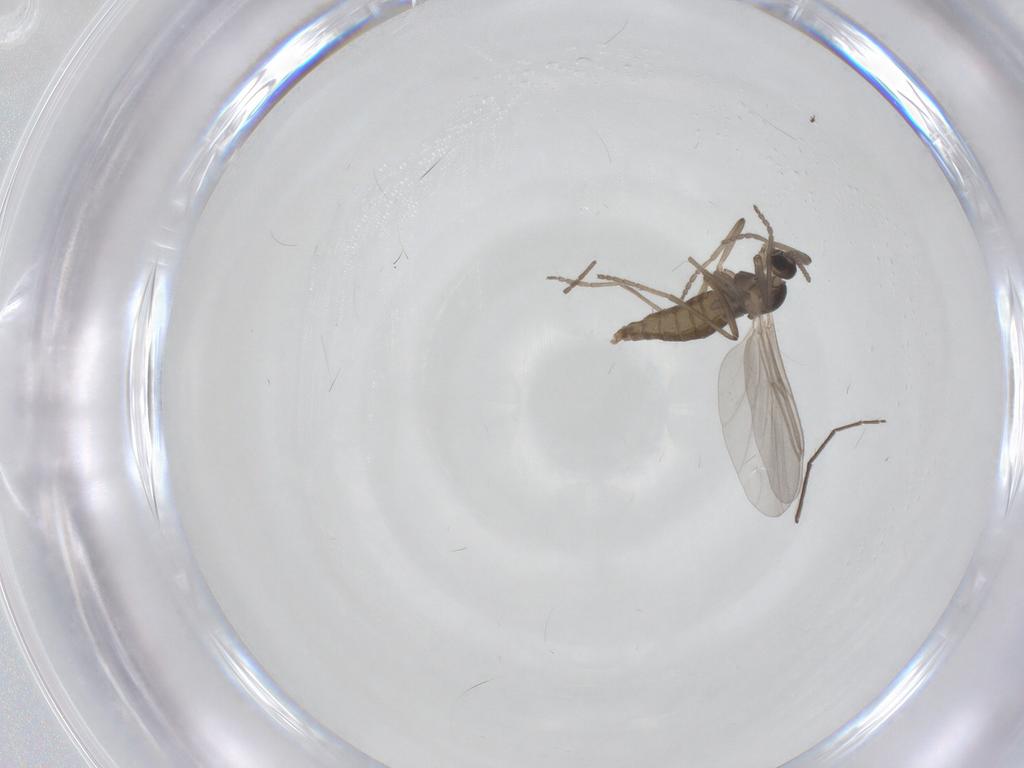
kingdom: Animalia
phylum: Arthropoda
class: Insecta
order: Diptera
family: Cecidomyiidae
